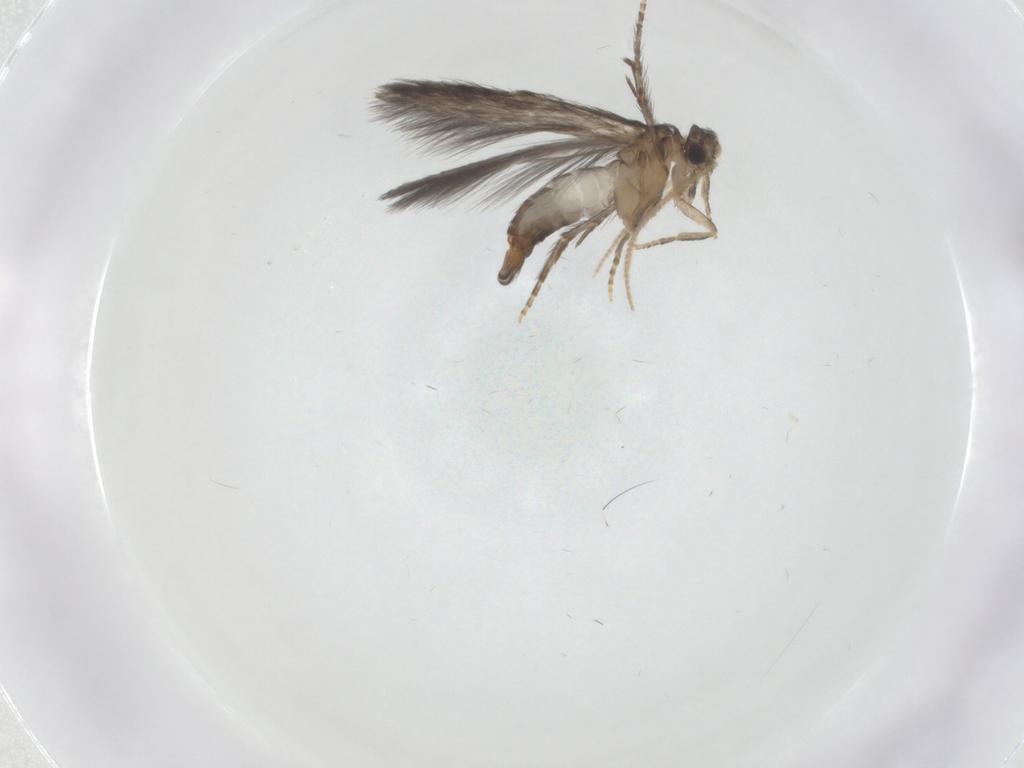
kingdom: Animalia
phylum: Arthropoda
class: Insecta
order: Trichoptera
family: Hydroptilidae
